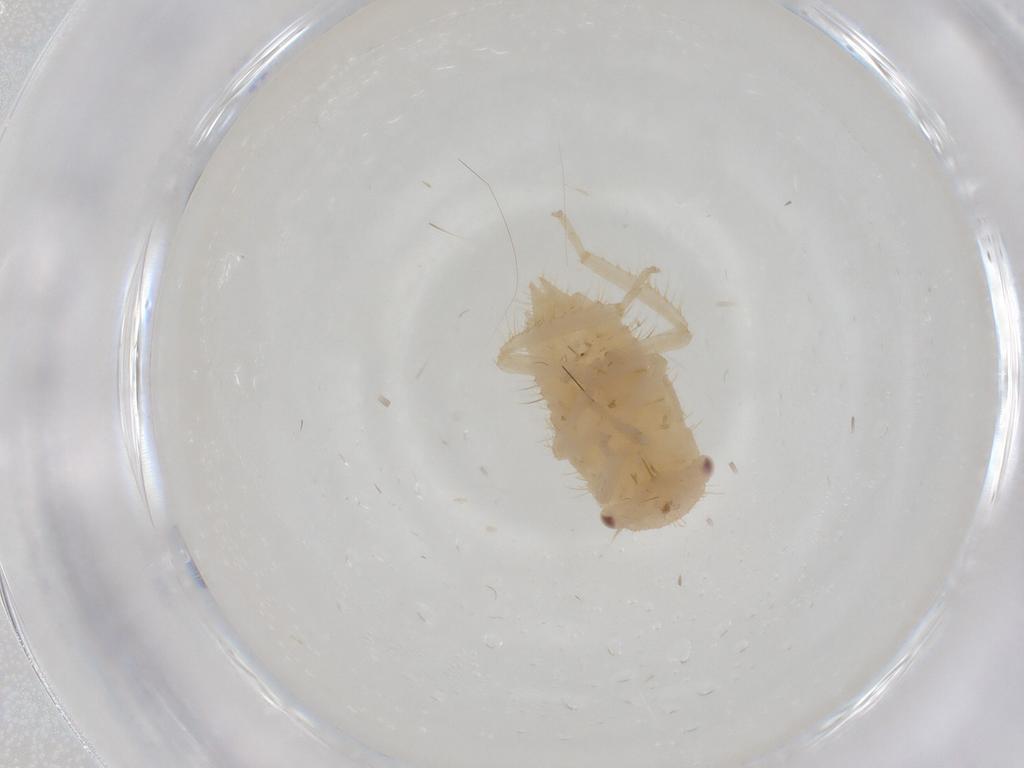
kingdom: Animalia
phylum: Arthropoda
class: Insecta
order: Hemiptera
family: Cicadellidae
